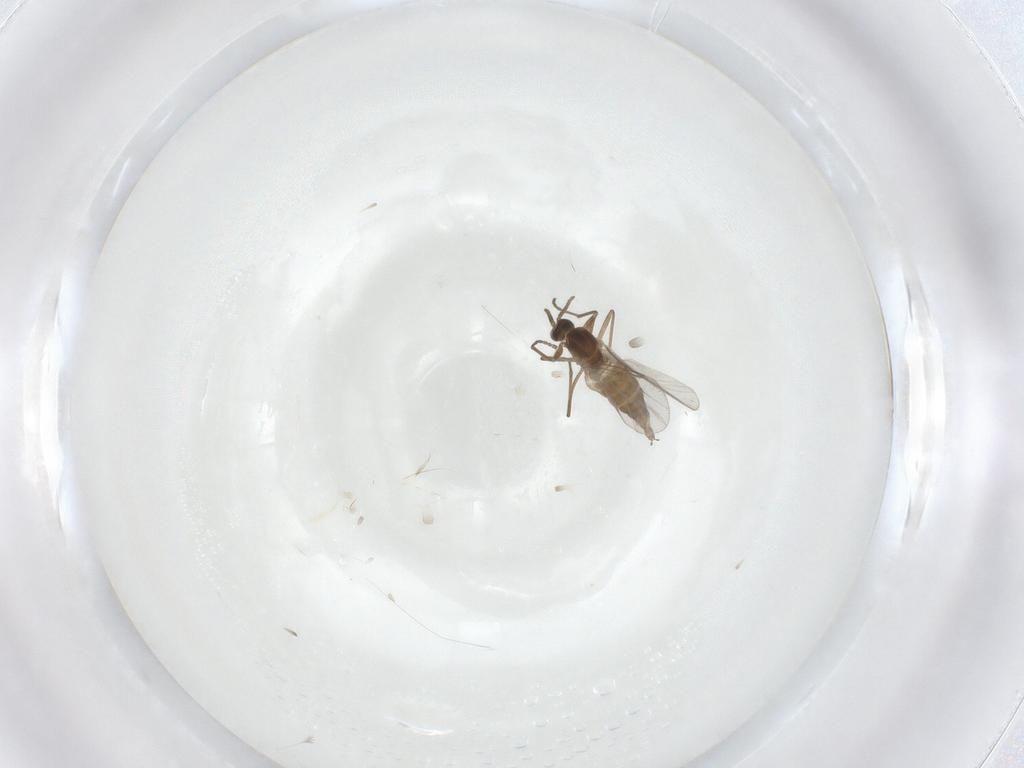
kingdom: Animalia
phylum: Arthropoda
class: Insecta
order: Diptera
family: Cecidomyiidae
